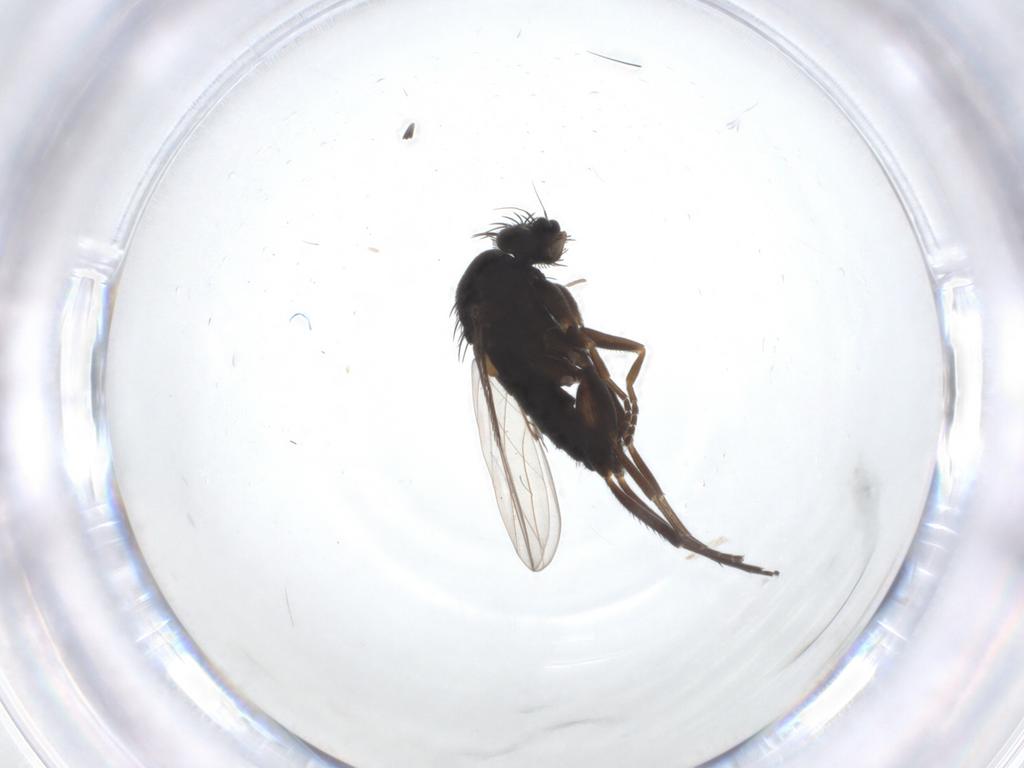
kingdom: Animalia
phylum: Arthropoda
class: Insecta
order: Diptera
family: Phoridae
